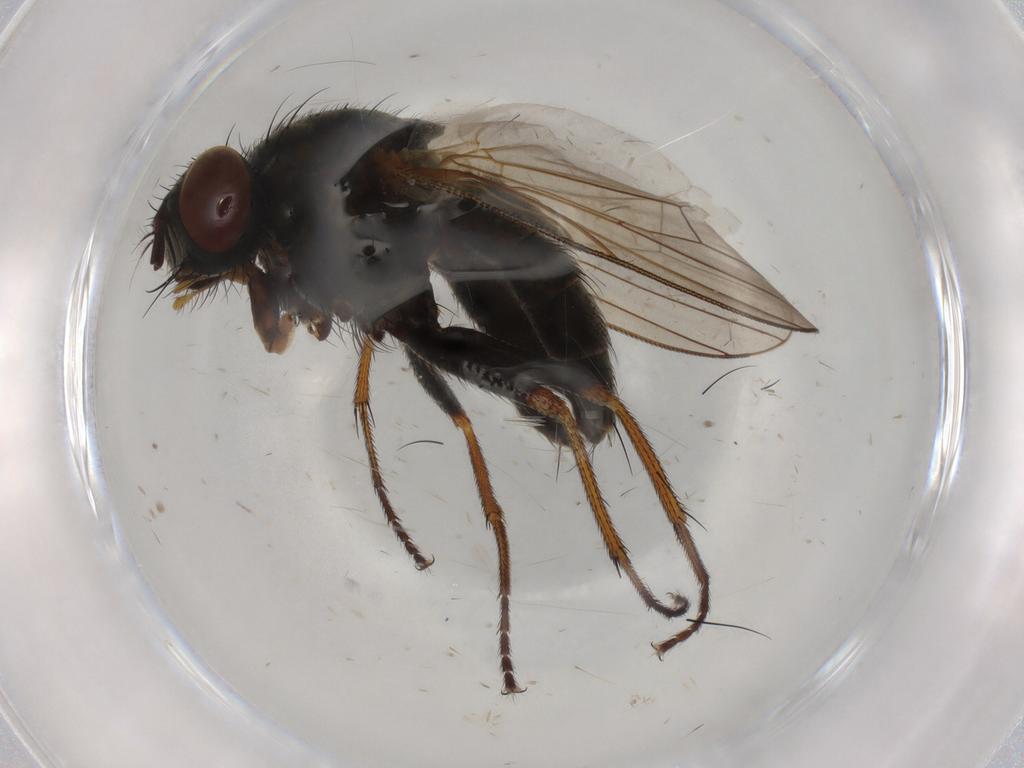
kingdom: Animalia
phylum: Arthropoda
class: Insecta
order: Diptera
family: Muscidae
